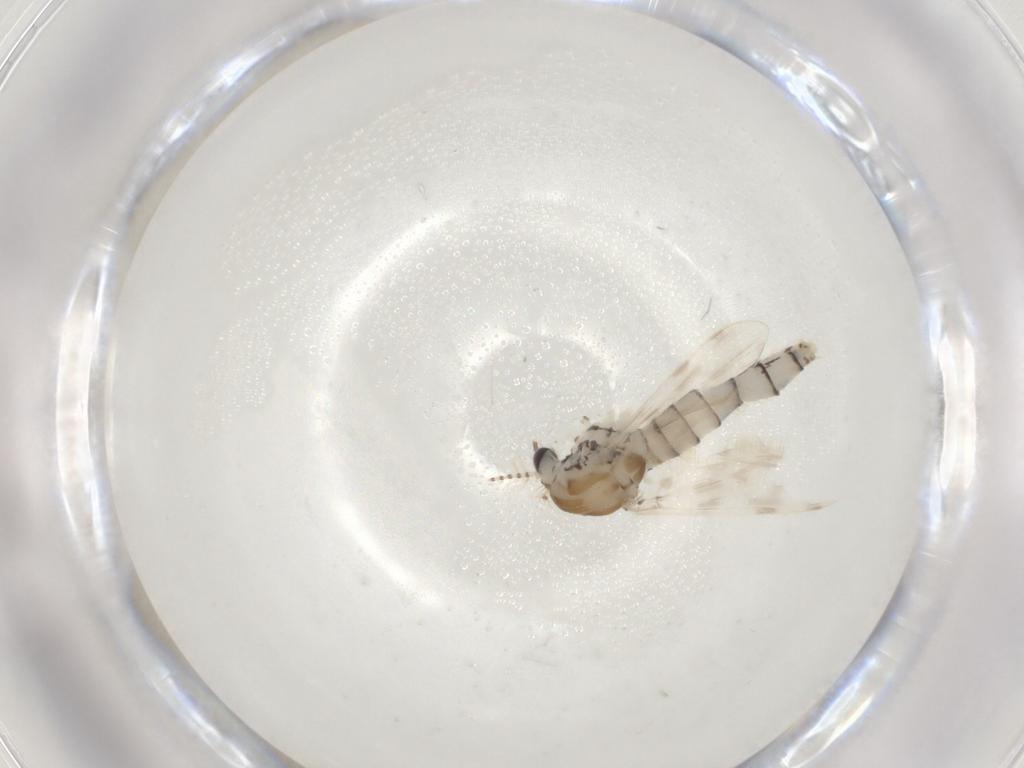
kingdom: Animalia
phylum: Arthropoda
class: Insecta
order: Diptera
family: Chaoboridae
